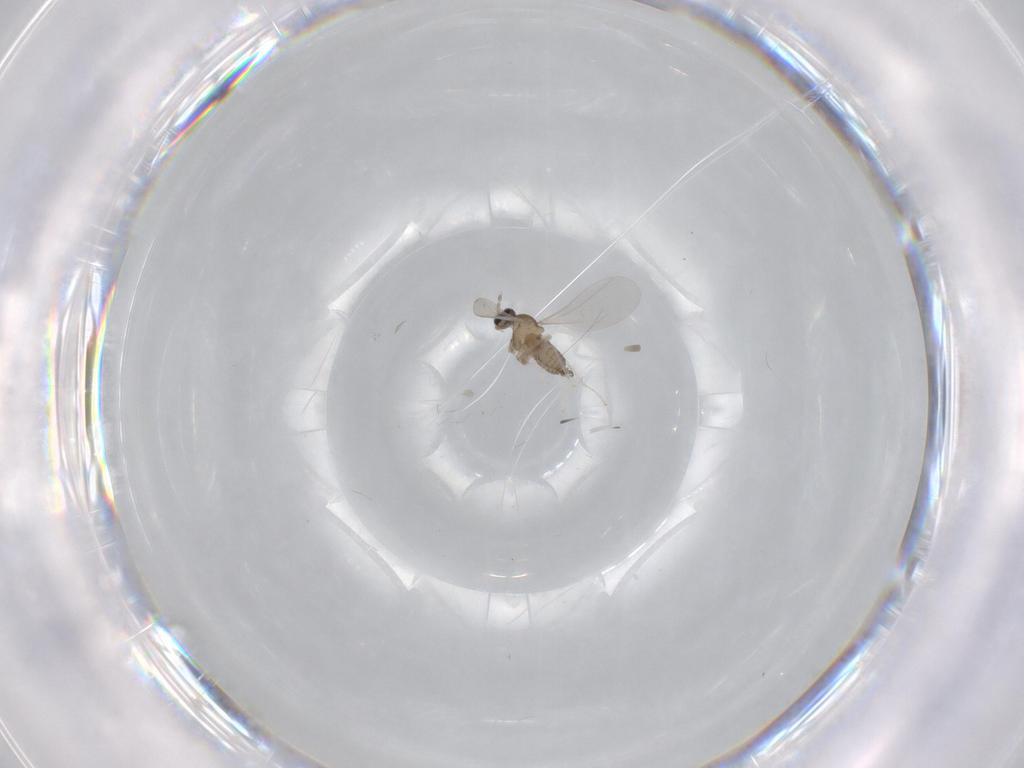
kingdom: Animalia
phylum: Arthropoda
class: Insecta
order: Diptera
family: Cecidomyiidae
